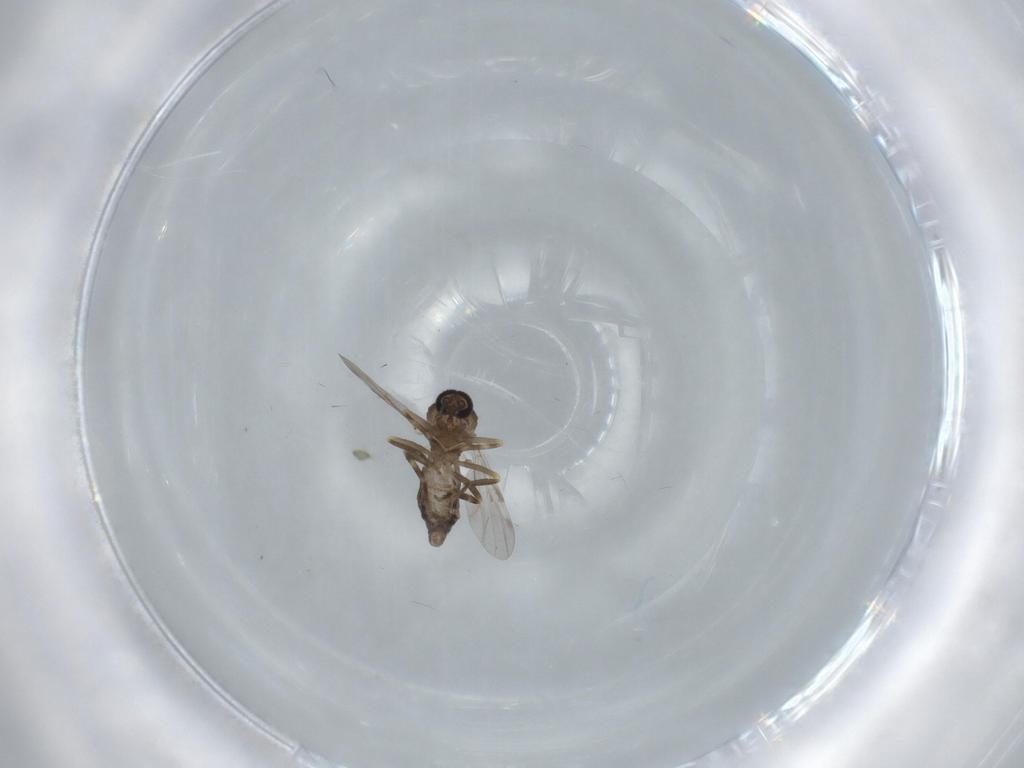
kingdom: Animalia
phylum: Arthropoda
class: Insecta
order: Diptera
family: Ceratopogonidae
